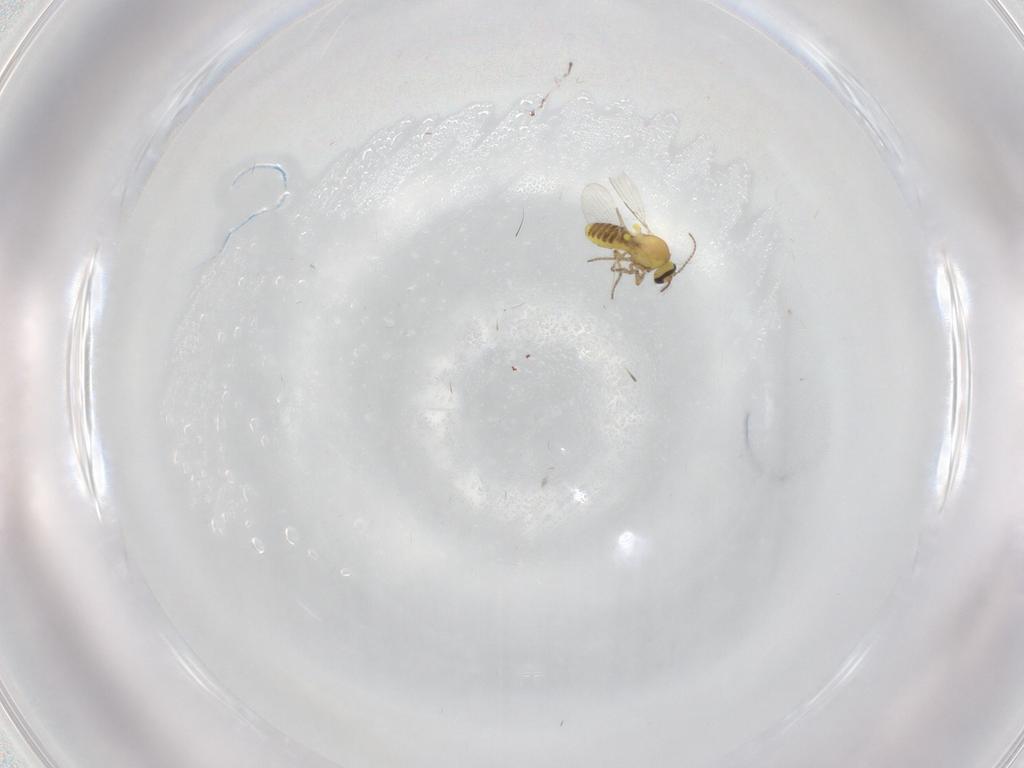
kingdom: Animalia
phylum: Arthropoda
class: Insecta
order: Diptera
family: Ceratopogonidae
